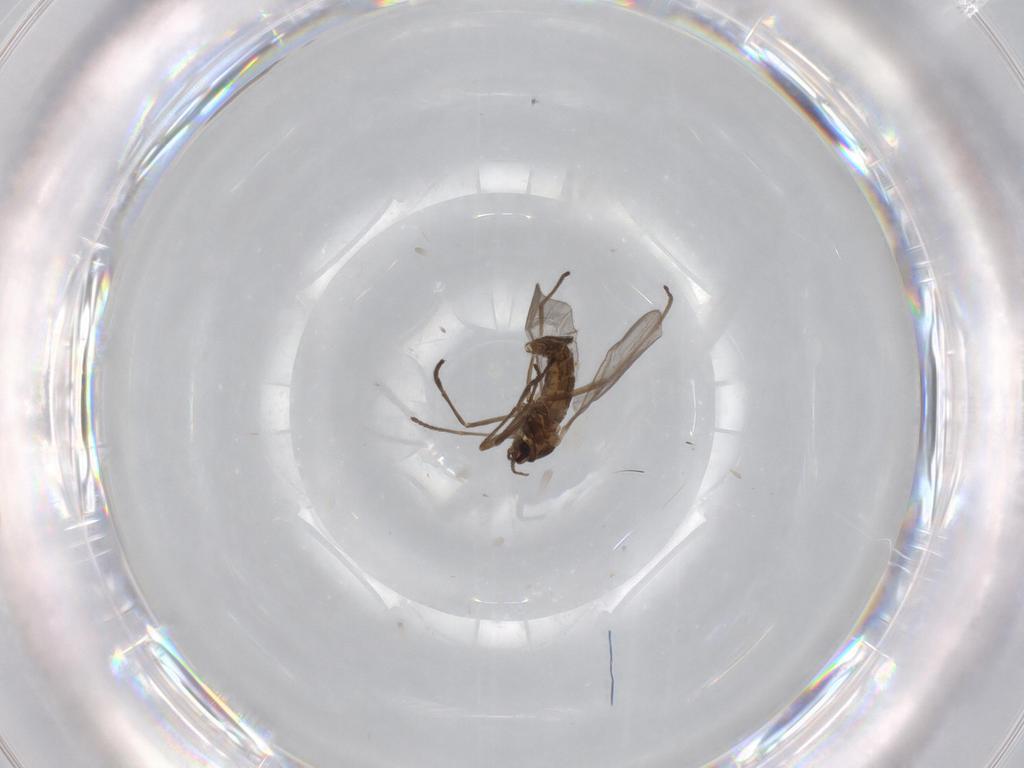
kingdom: Animalia
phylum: Arthropoda
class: Insecta
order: Diptera
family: Cecidomyiidae
